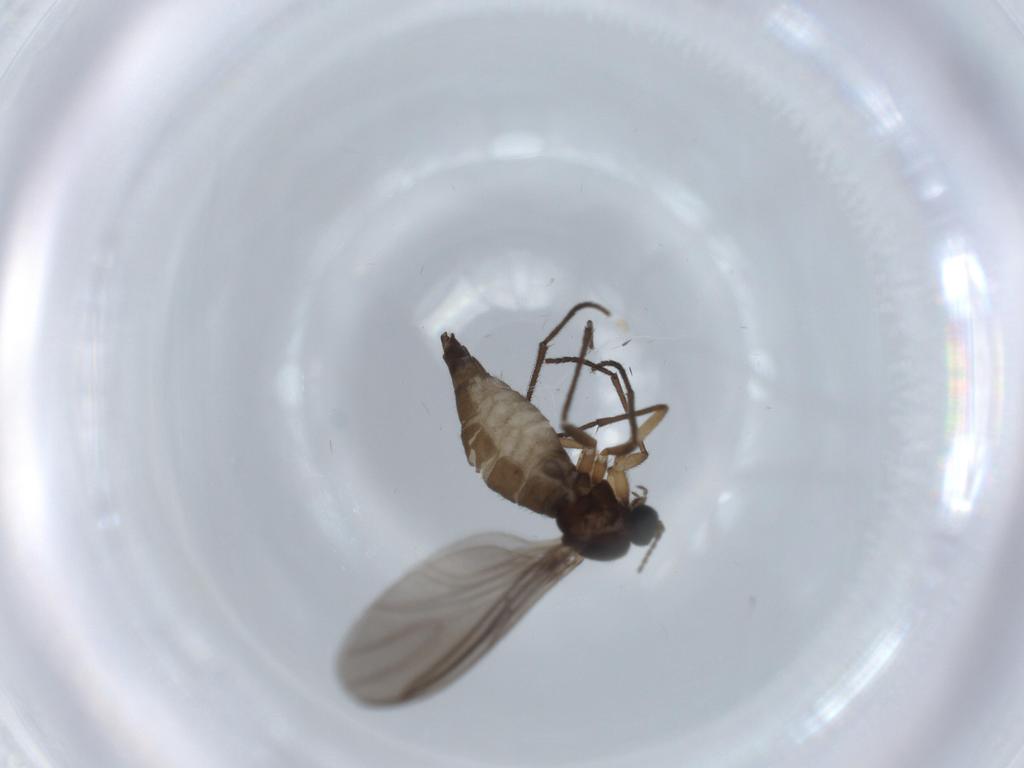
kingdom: Animalia
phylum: Arthropoda
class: Insecta
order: Diptera
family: Sciaridae
